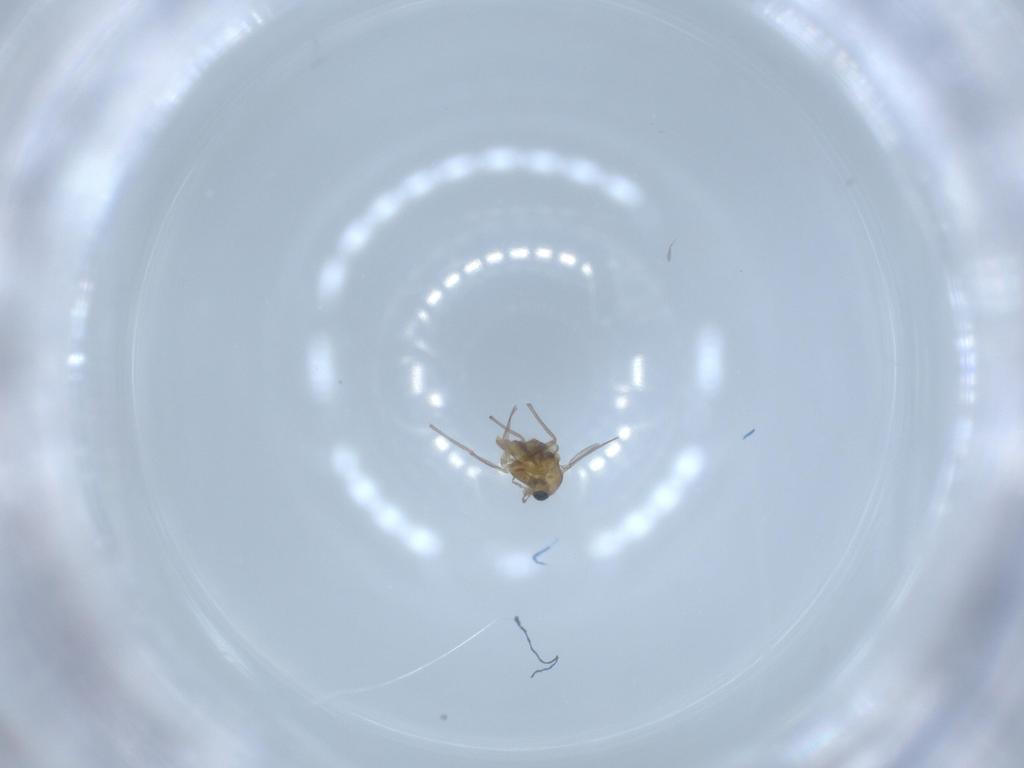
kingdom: Animalia
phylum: Arthropoda
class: Insecta
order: Diptera
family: Chironomidae
